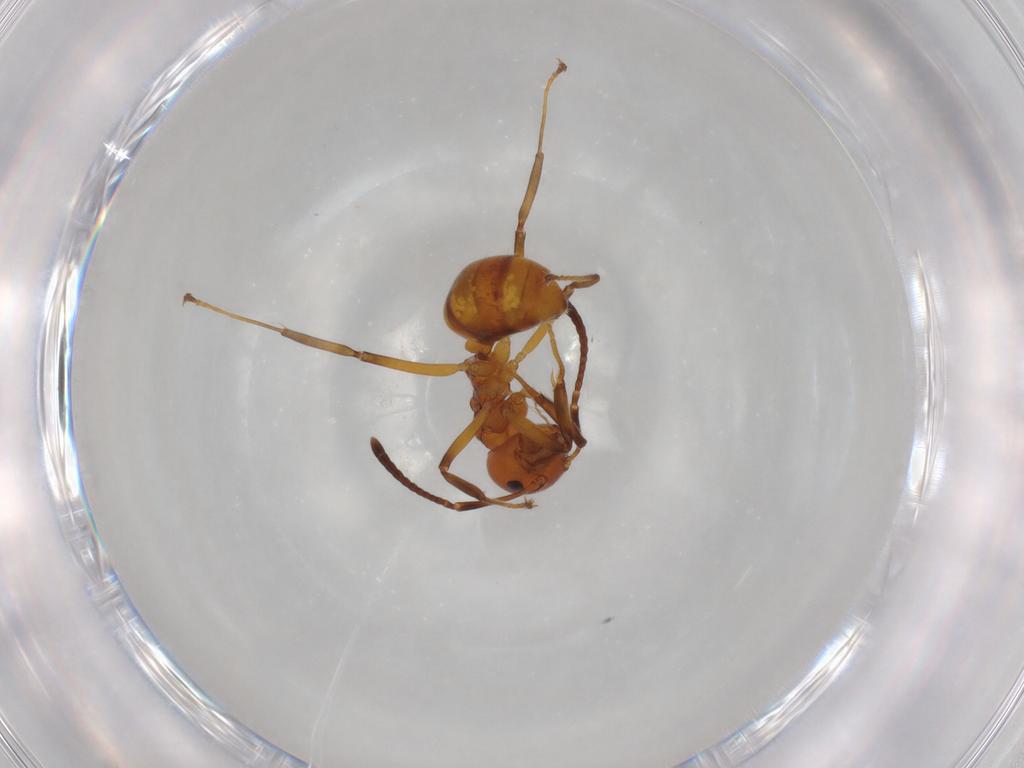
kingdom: Animalia
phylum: Arthropoda
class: Insecta
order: Hymenoptera
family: Formicidae
